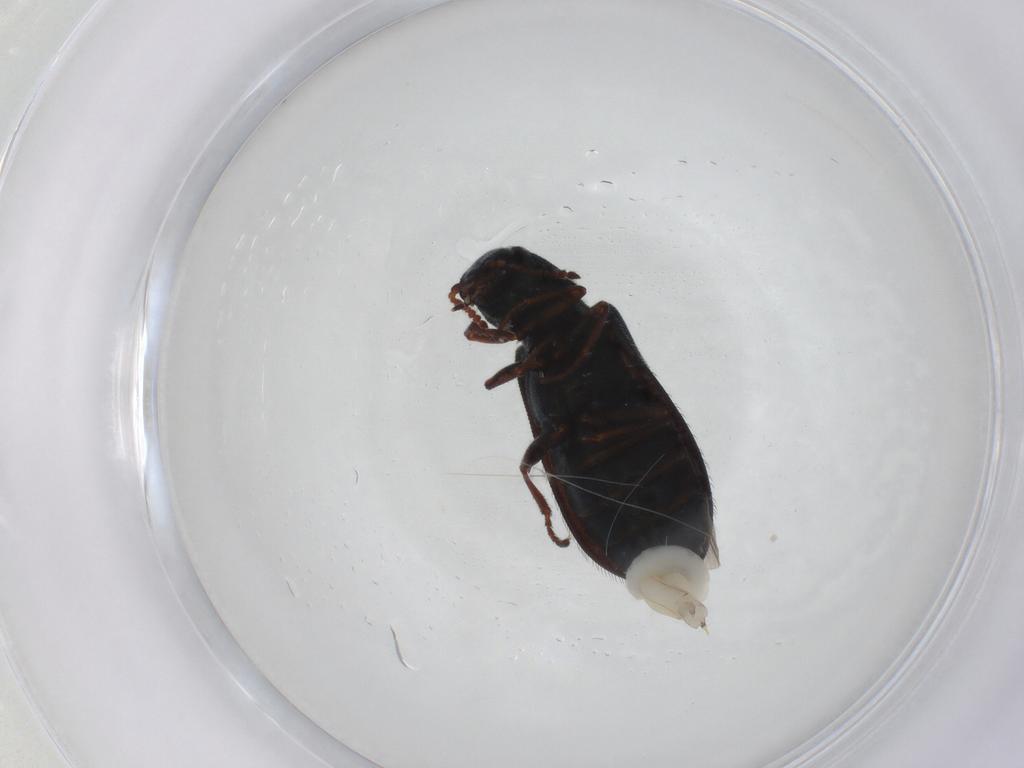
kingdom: Animalia
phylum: Arthropoda
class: Insecta
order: Coleoptera
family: Melyridae
